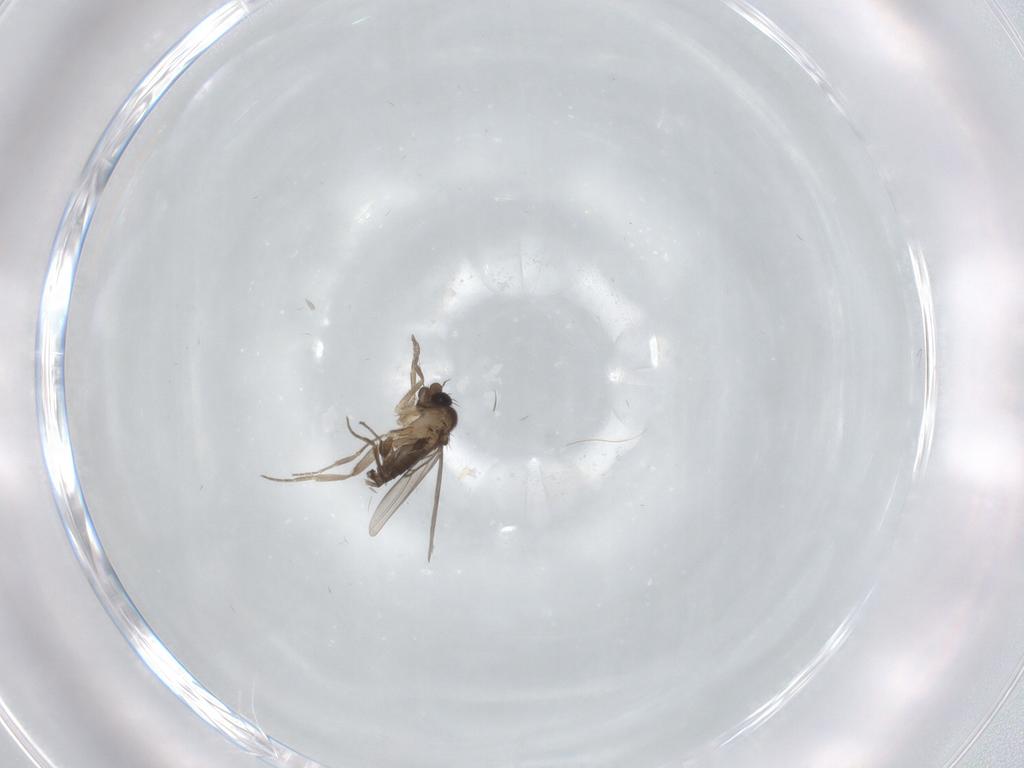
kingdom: Animalia
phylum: Arthropoda
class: Insecta
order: Diptera
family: Phoridae
